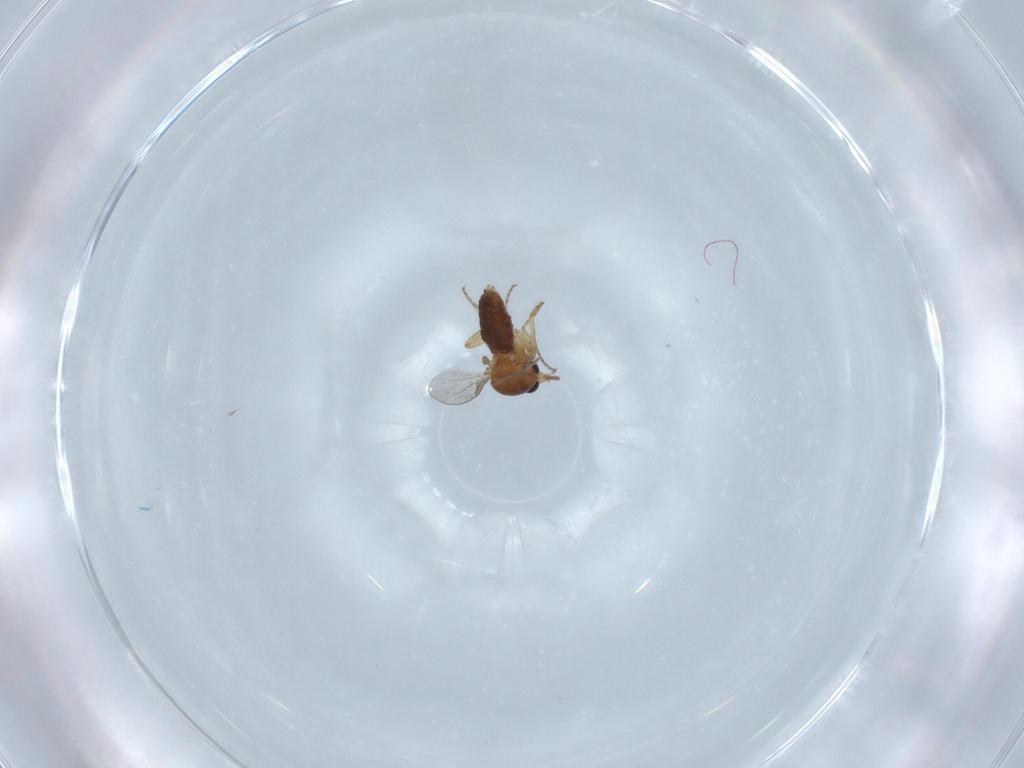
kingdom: Animalia
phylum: Arthropoda
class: Insecta
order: Diptera
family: Ceratopogonidae
